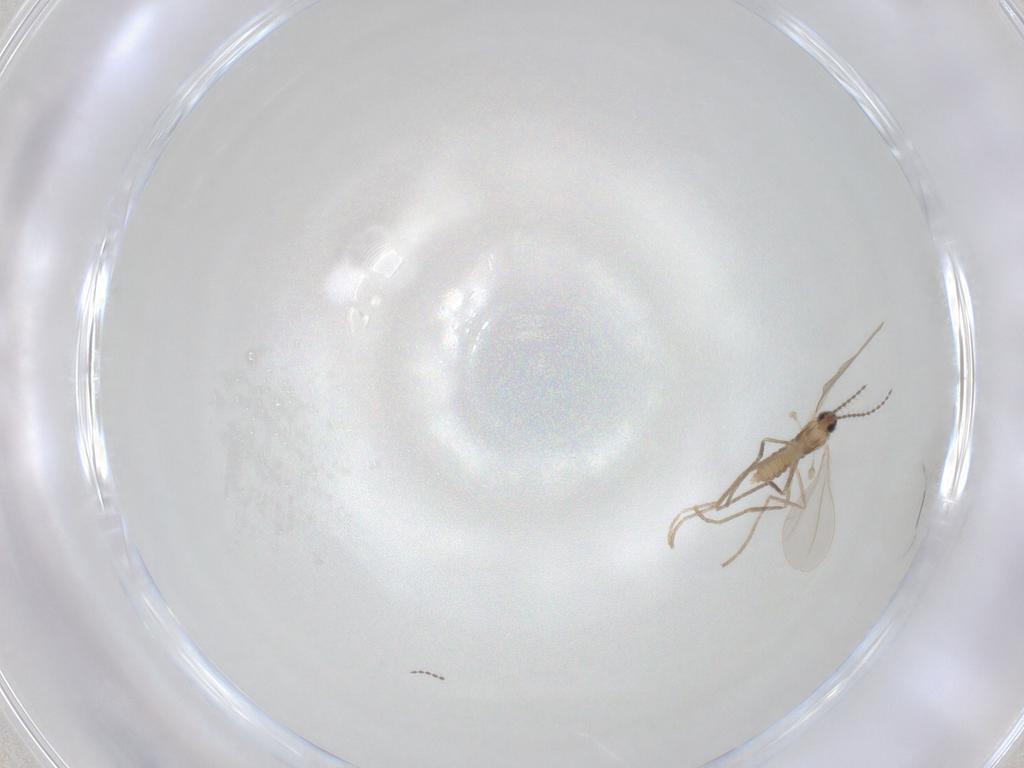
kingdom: Animalia
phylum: Arthropoda
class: Insecta
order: Diptera
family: Cecidomyiidae
